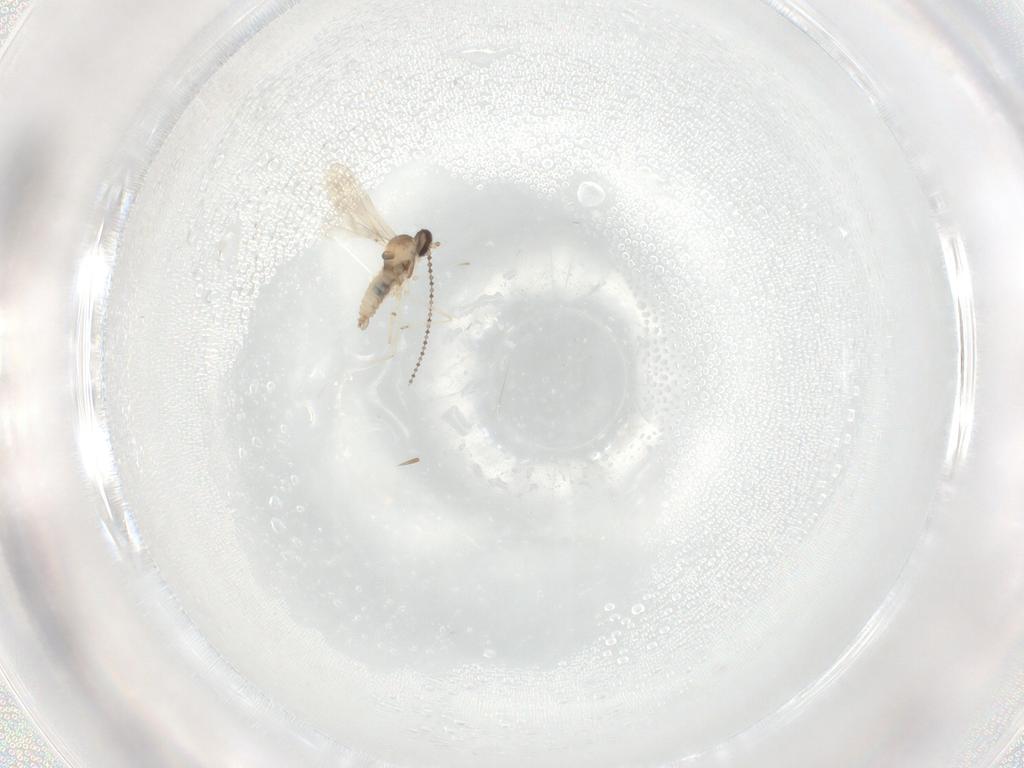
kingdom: Animalia
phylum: Arthropoda
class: Insecta
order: Diptera
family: Cecidomyiidae
